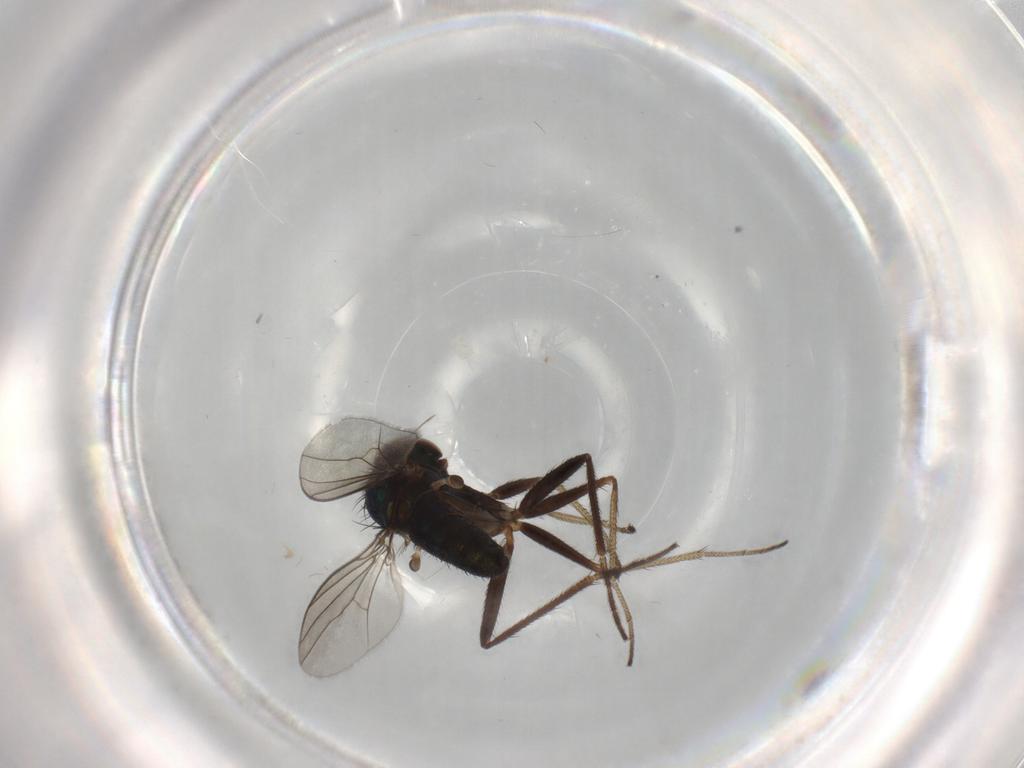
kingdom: Animalia
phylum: Arthropoda
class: Insecta
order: Diptera
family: Dolichopodidae
